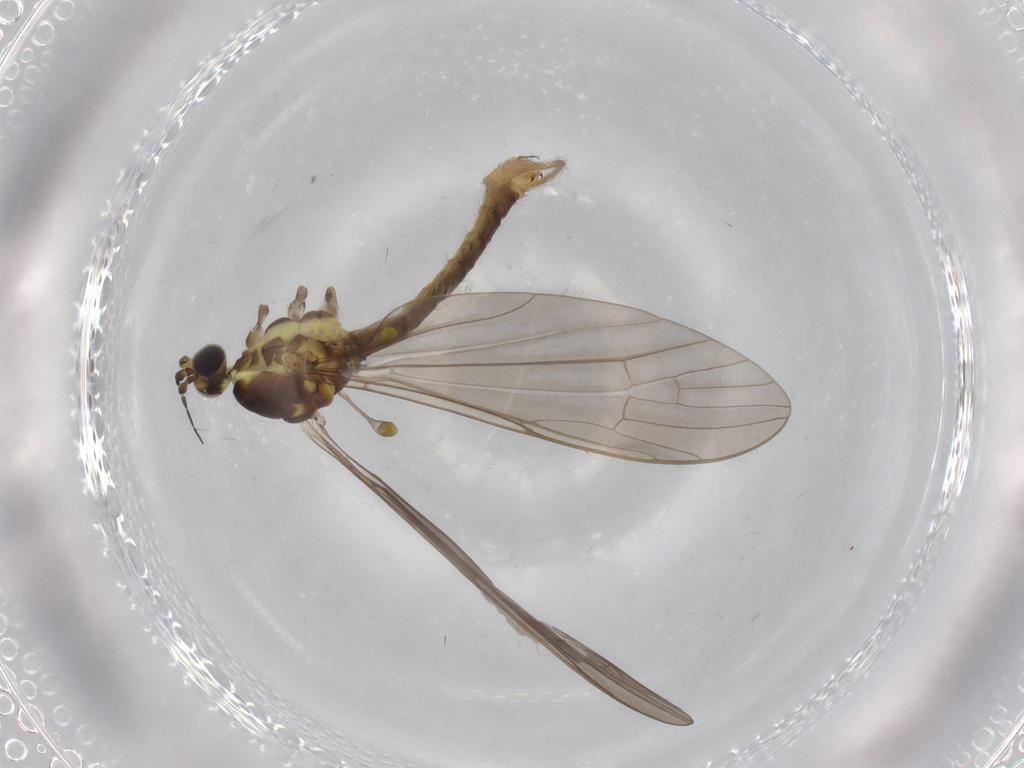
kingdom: Animalia
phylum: Arthropoda
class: Insecta
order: Diptera
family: Limoniidae
